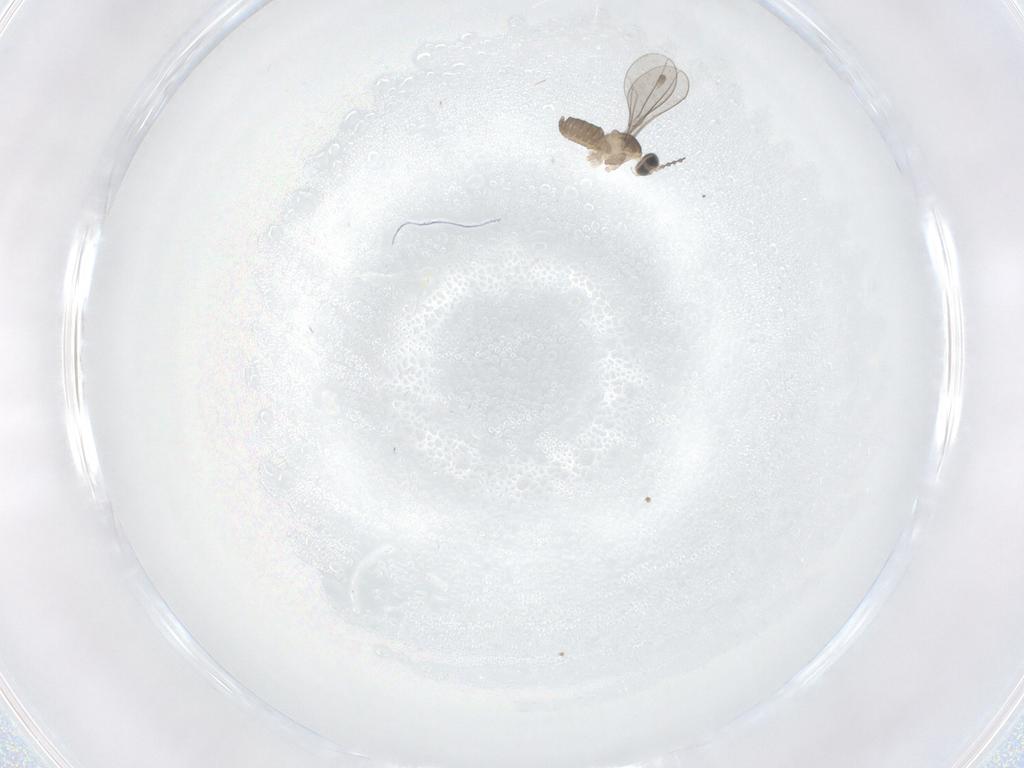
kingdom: Animalia
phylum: Arthropoda
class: Insecta
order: Diptera
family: Cecidomyiidae
